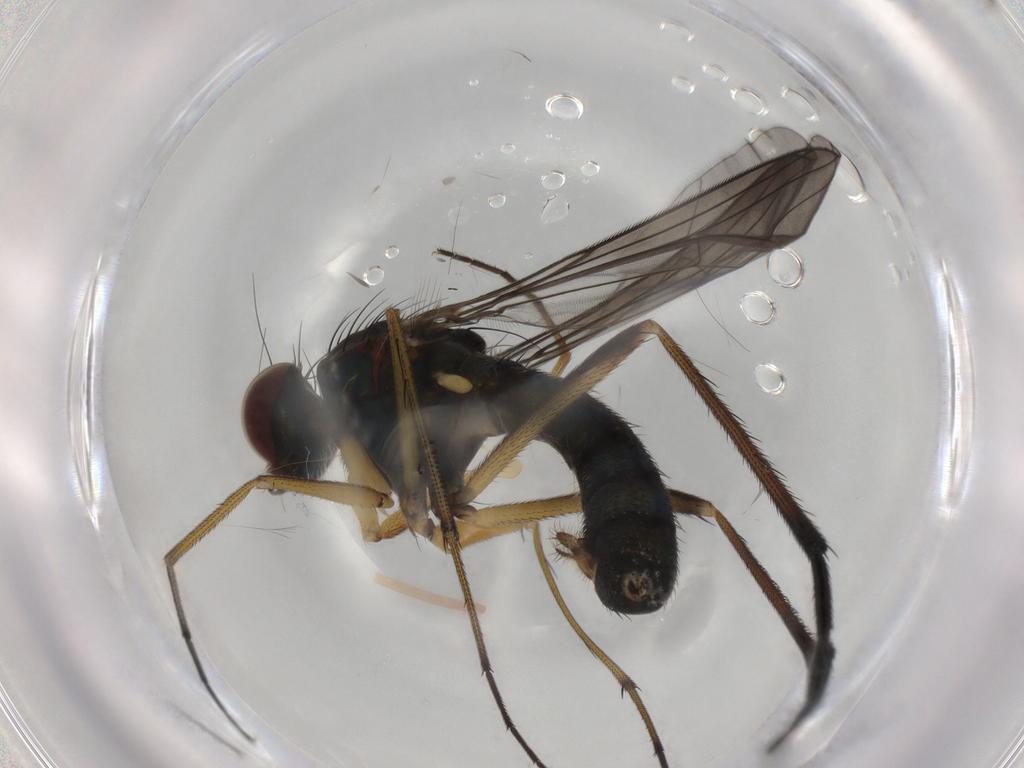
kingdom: Animalia
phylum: Arthropoda
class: Insecta
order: Diptera
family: Dolichopodidae
